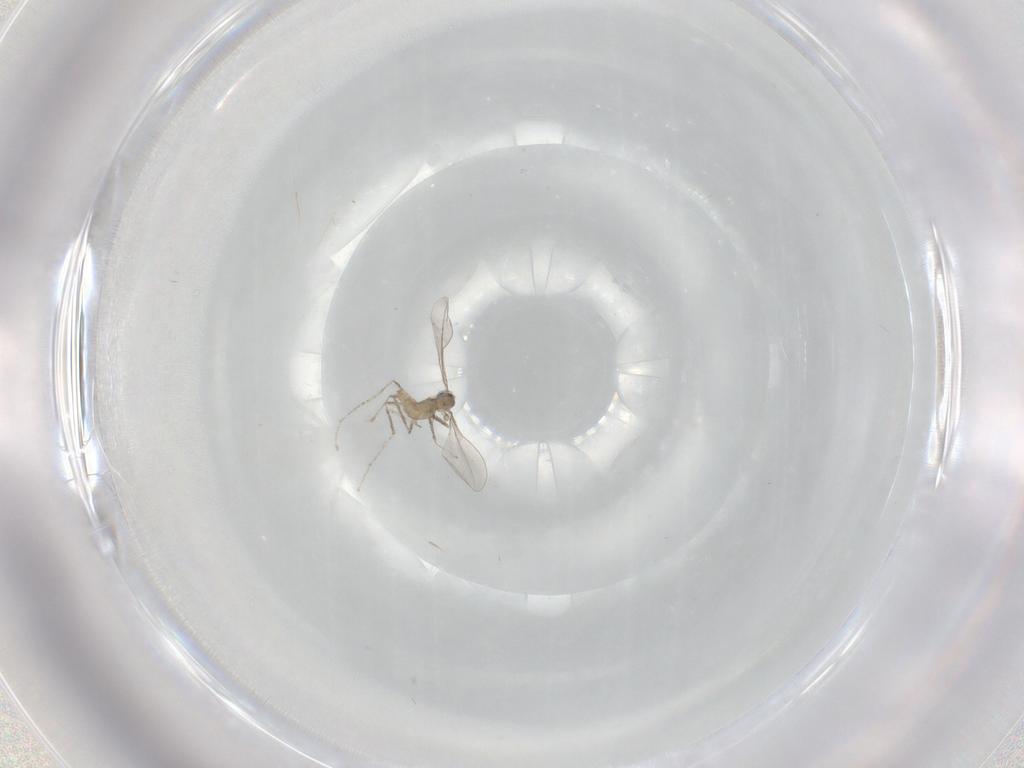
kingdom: Animalia
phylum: Arthropoda
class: Insecta
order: Diptera
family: Cecidomyiidae
